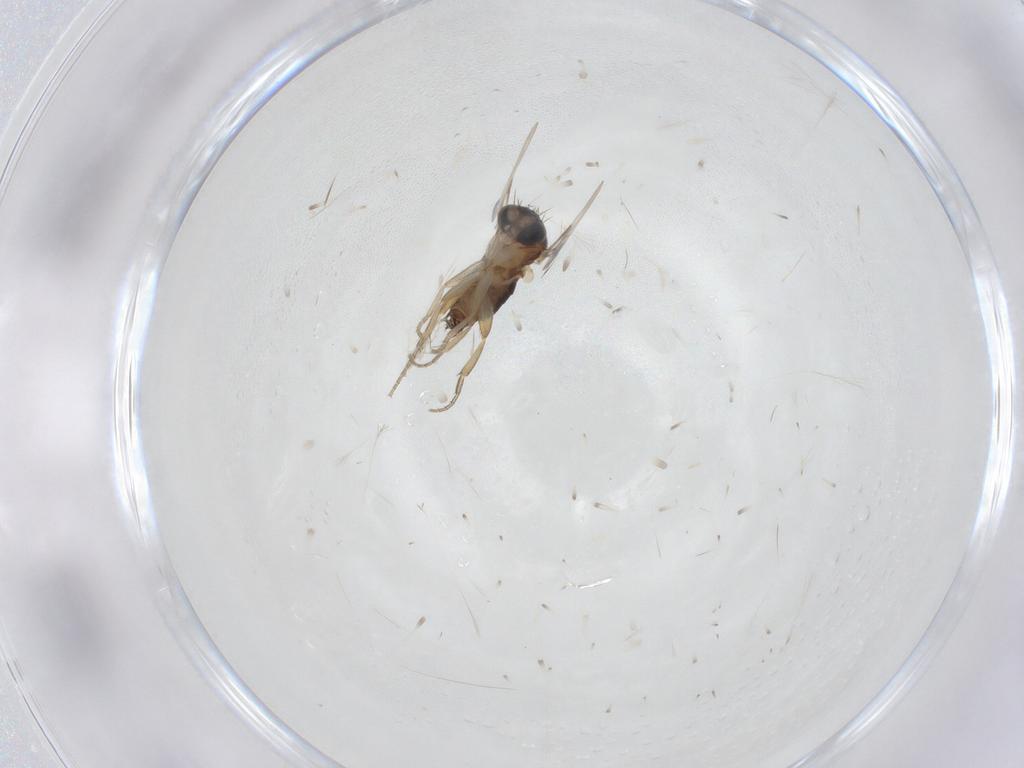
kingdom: Animalia
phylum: Arthropoda
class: Insecta
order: Diptera
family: Phoridae
